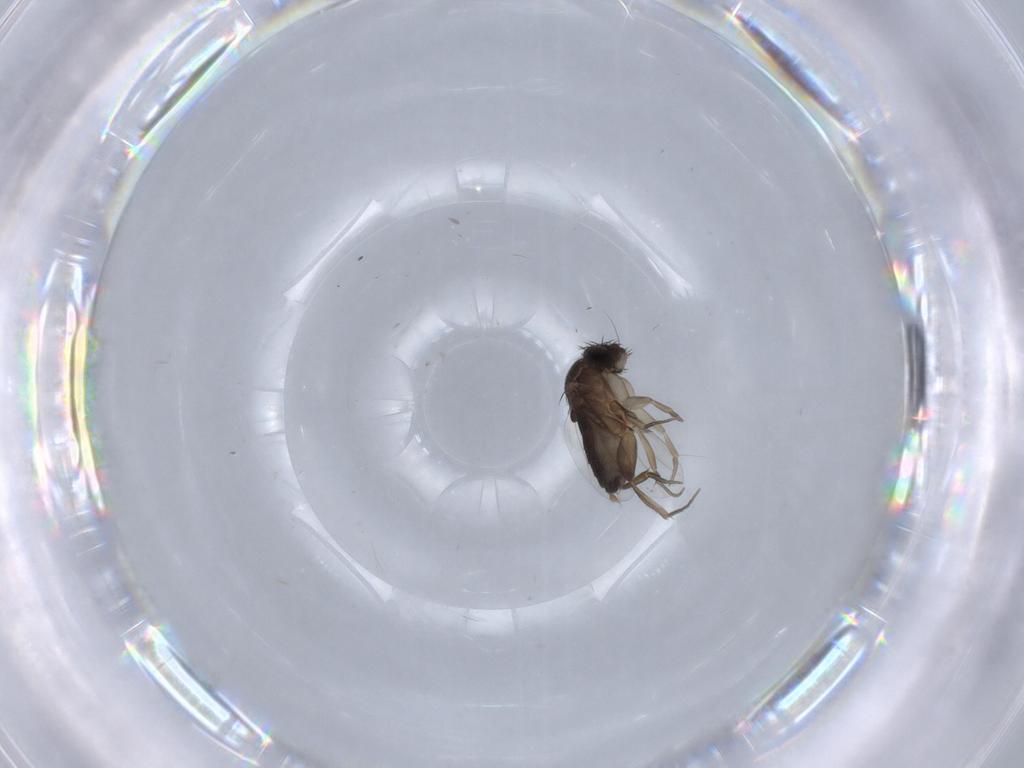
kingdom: Animalia
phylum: Arthropoda
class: Insecta
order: Diptera
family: Phoridae
